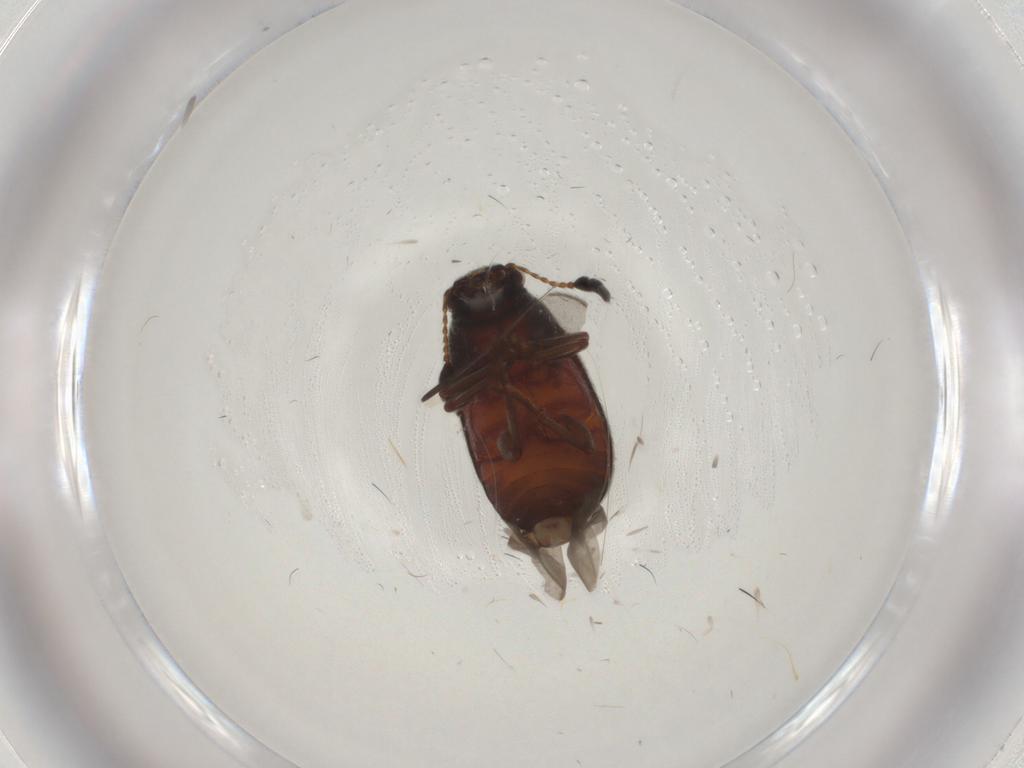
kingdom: Animalia
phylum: Arthropoda
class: Insecta
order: Coleoptera
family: Anthribidae
